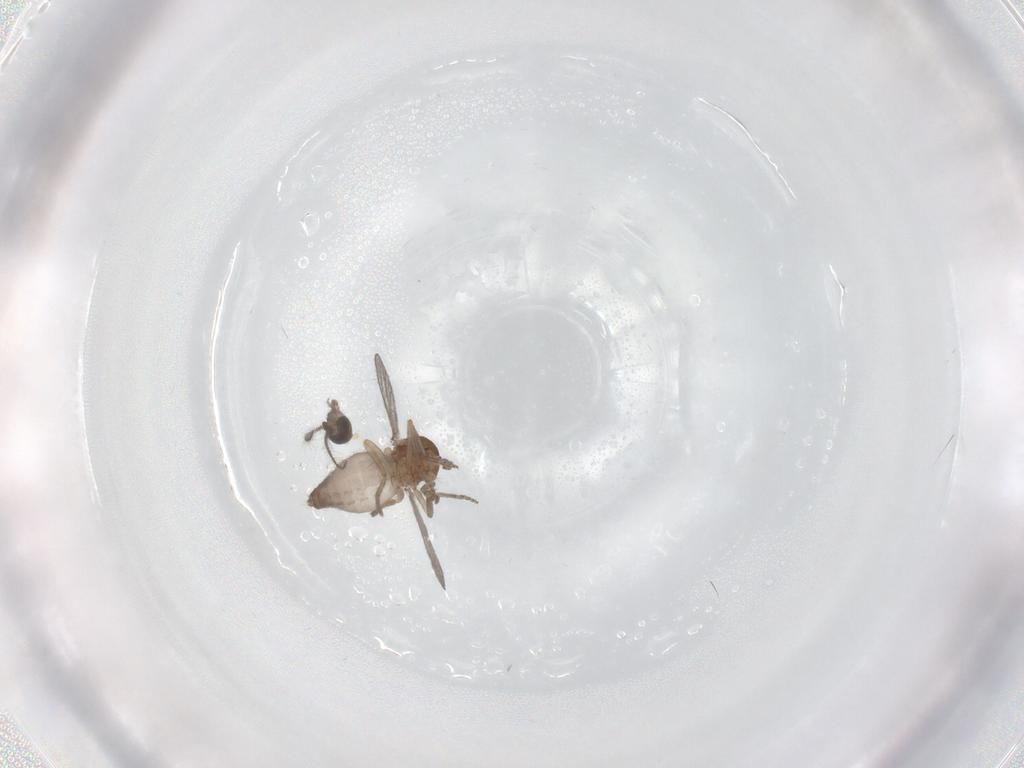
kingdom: Animalia
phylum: Arthropoda
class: Insecta
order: Diptera
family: Ceratopogonidae
